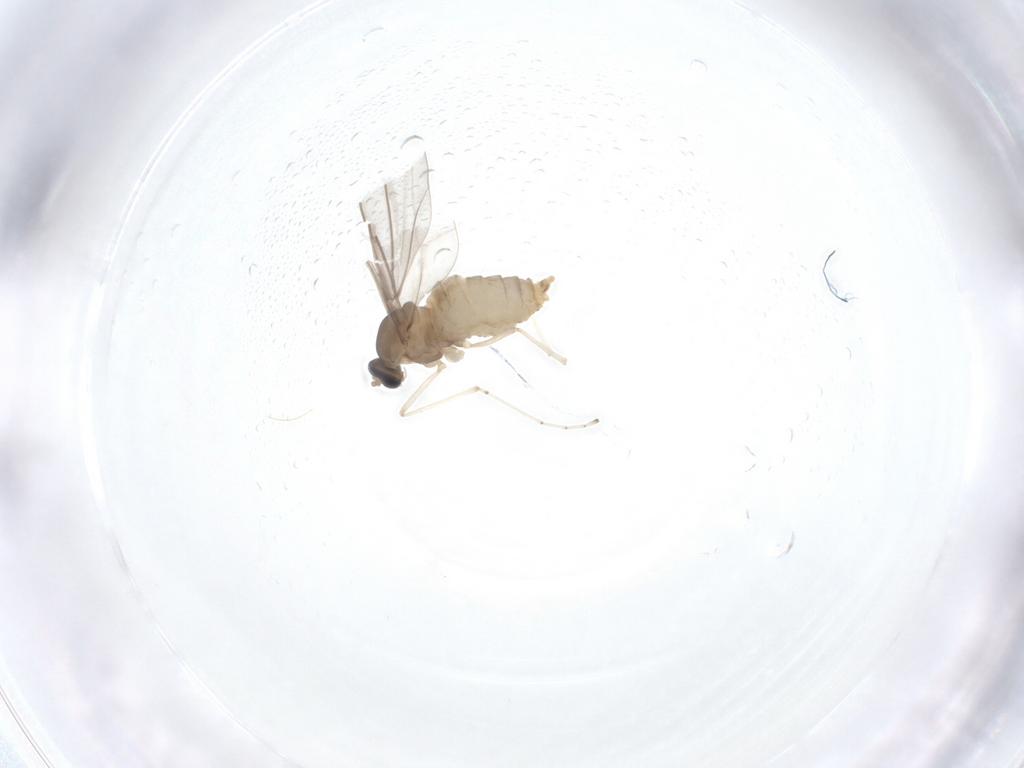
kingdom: Animalia
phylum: Arthropoda
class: Insecta
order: Diptera
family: Cecidomyiidae
